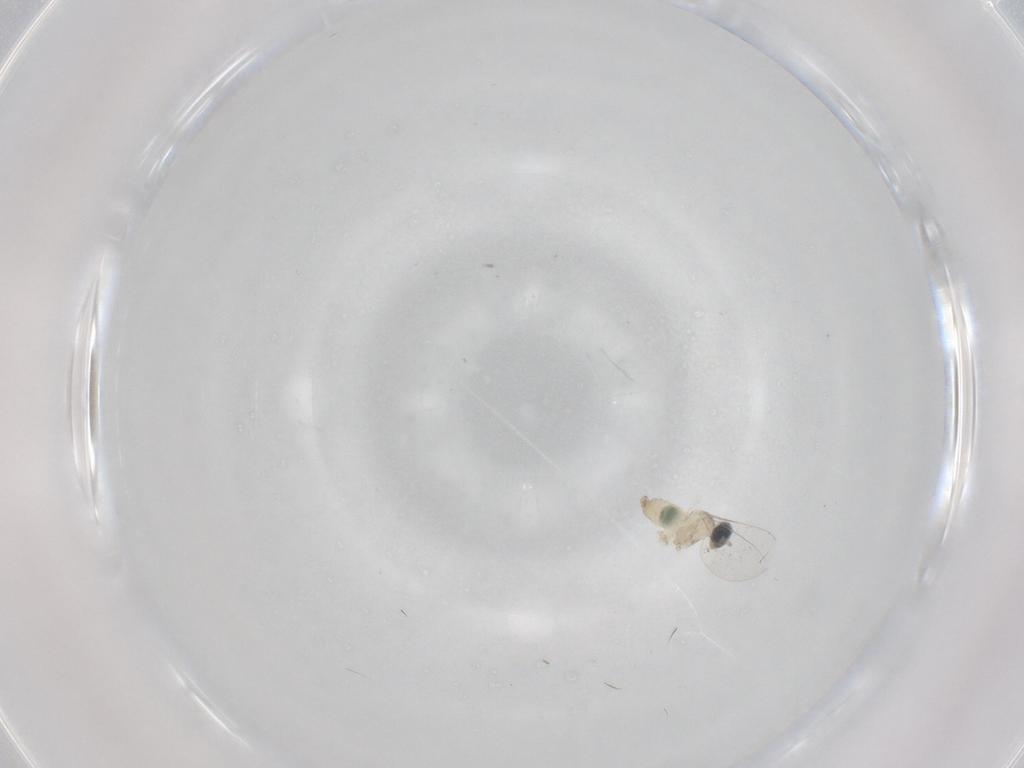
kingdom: Animalia
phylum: Arthropoda
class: Insecta
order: Diptera
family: Cecidomyiidae
